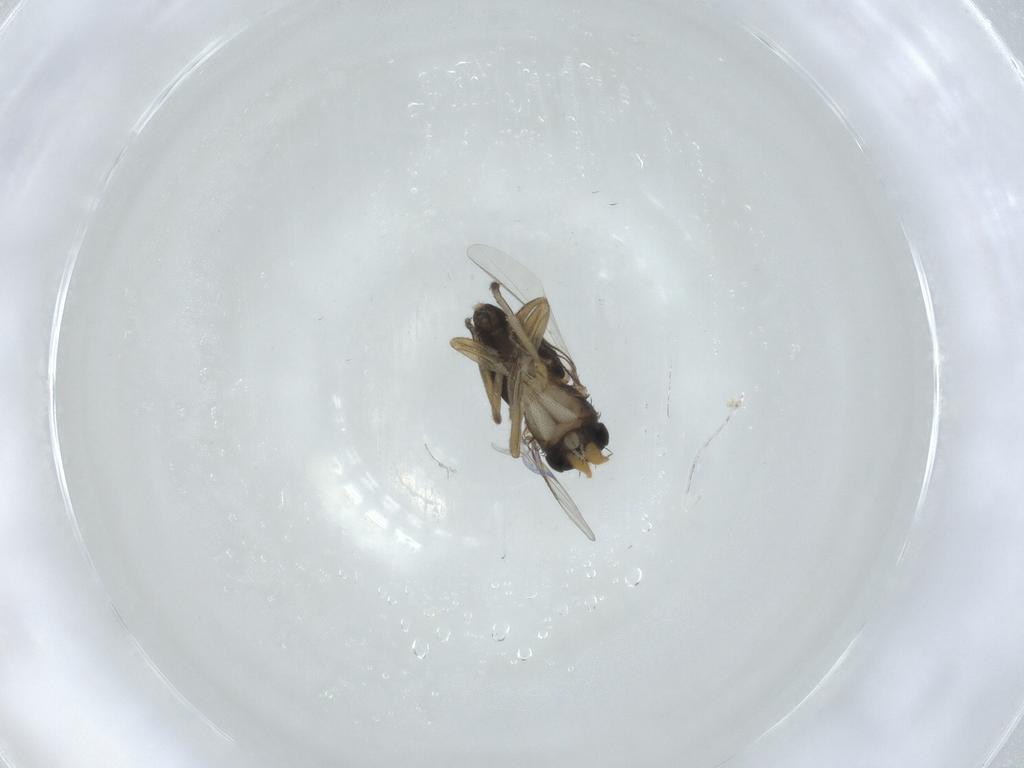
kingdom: Animalia
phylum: Arthropoda
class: Insecta
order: Diptera
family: Phoridae
